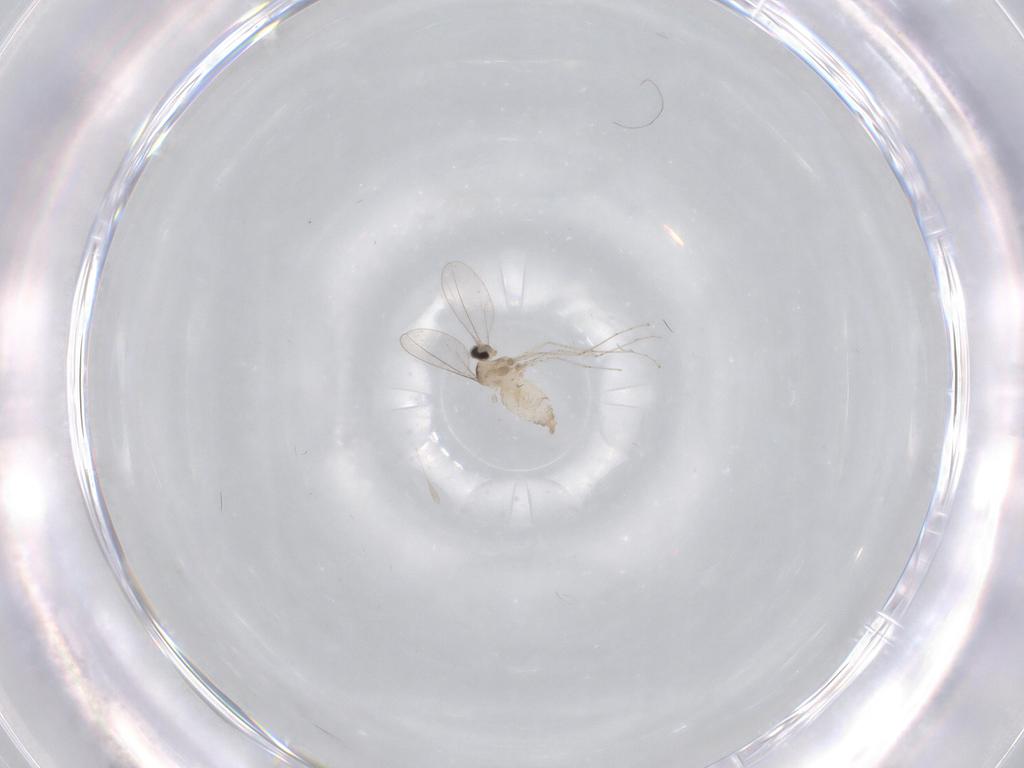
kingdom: Animalia
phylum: Arthropoda
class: Insecta
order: Diptera
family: Cecidomyiidae
